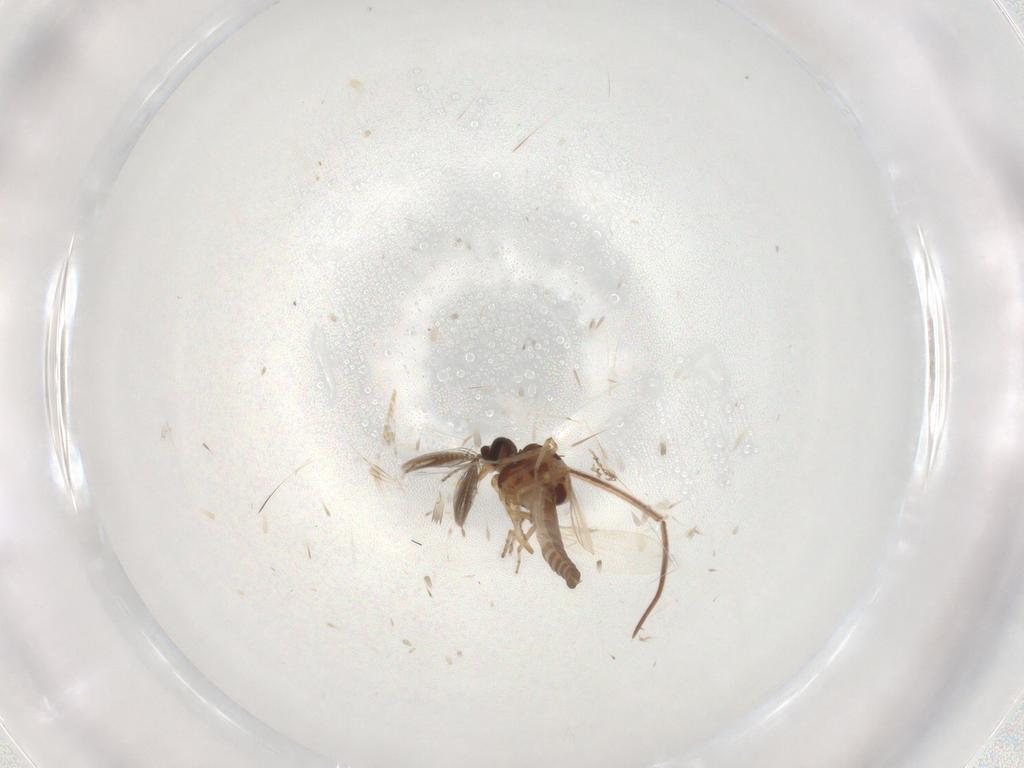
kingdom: Animalia
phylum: Arthropoda
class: Insecta
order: Diptera
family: Ceratopogonidae
